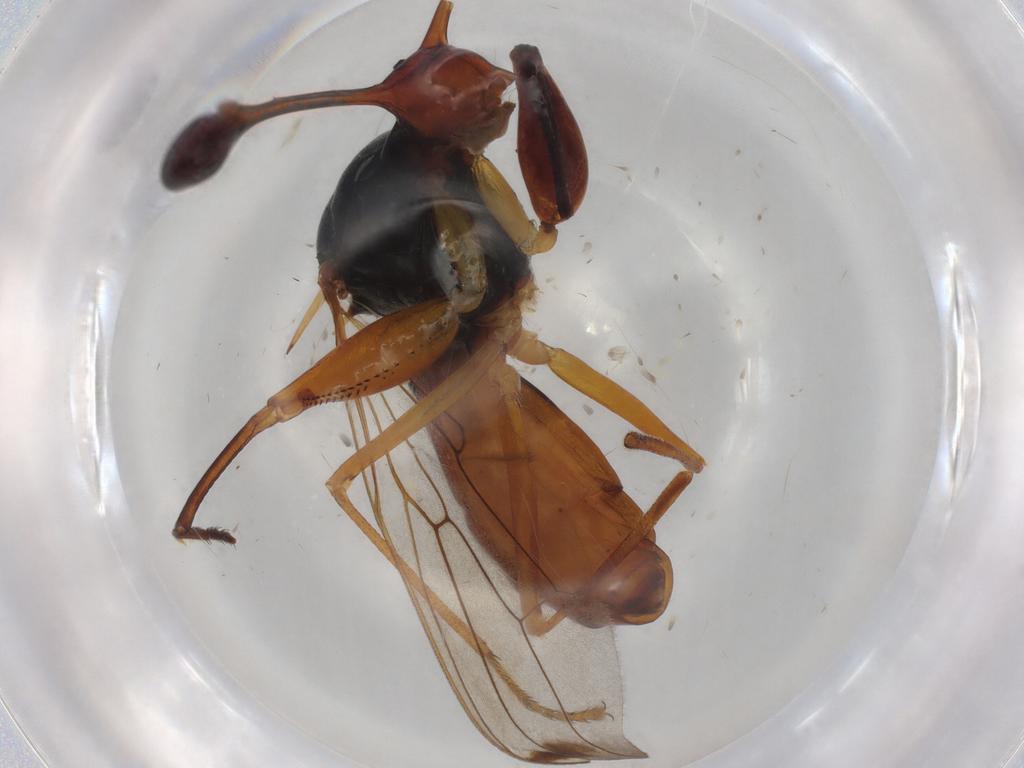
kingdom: Animalia
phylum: Arthropoda
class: Insecta
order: Diptera
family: Diopsidae
